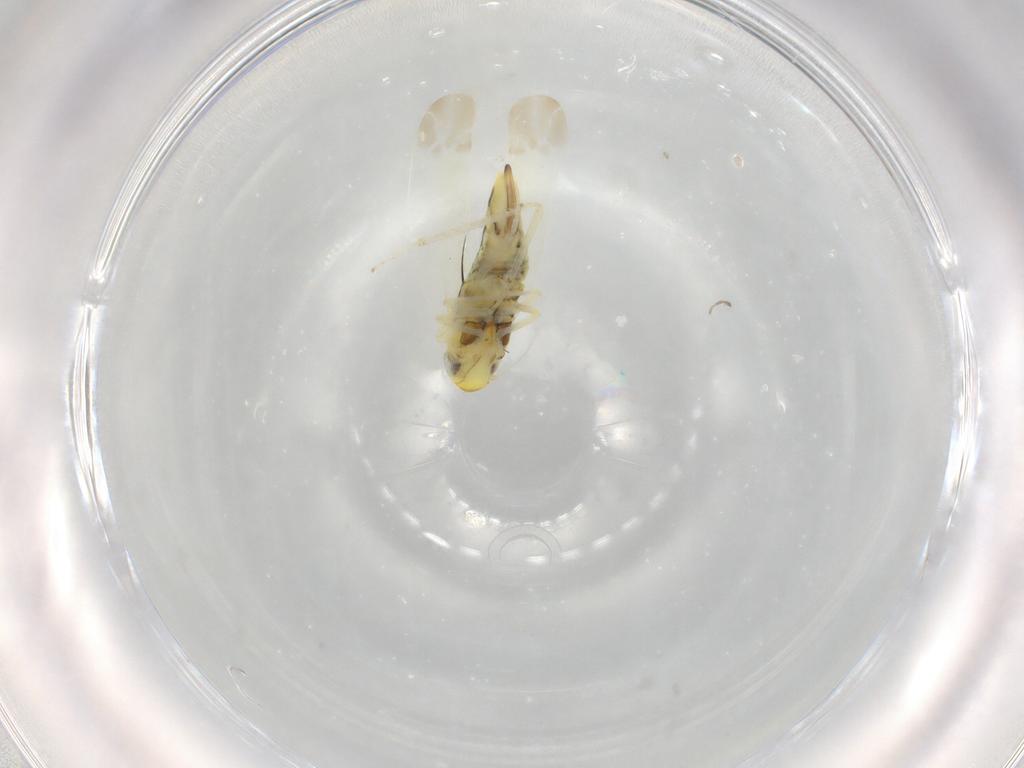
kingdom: Animalia
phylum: Arthropoda
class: Insecta
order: Hemiptera
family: Cicadellidae
